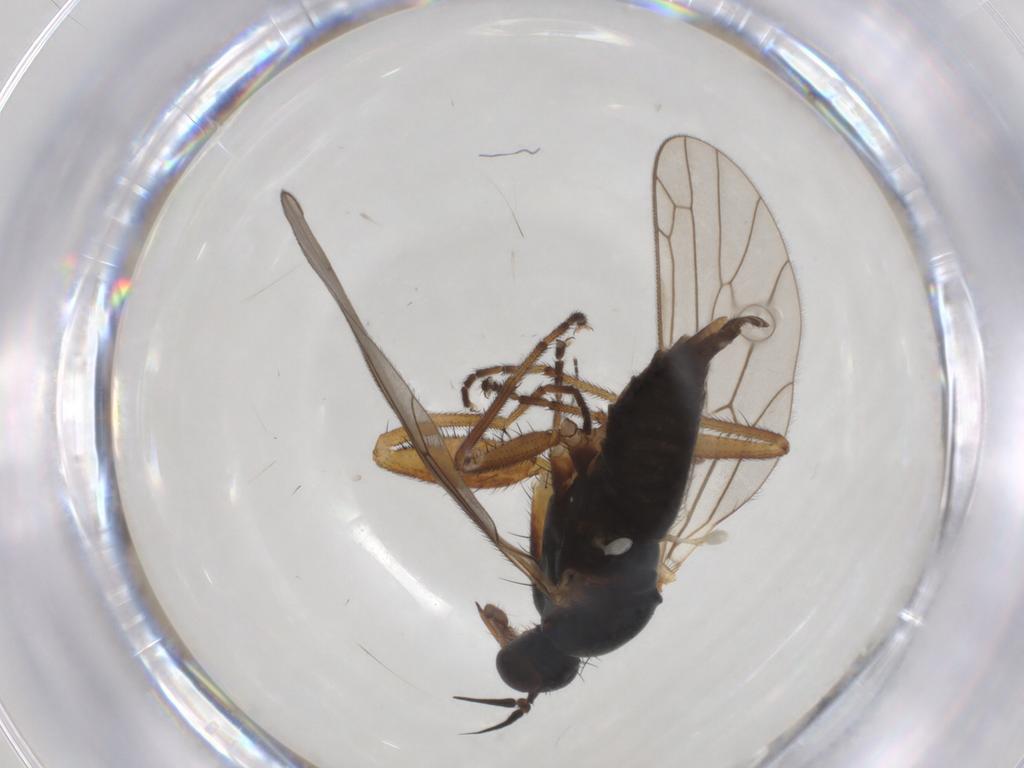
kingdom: Animalia
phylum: Arthropoda
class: Insecta
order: Diptera
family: Empididae
